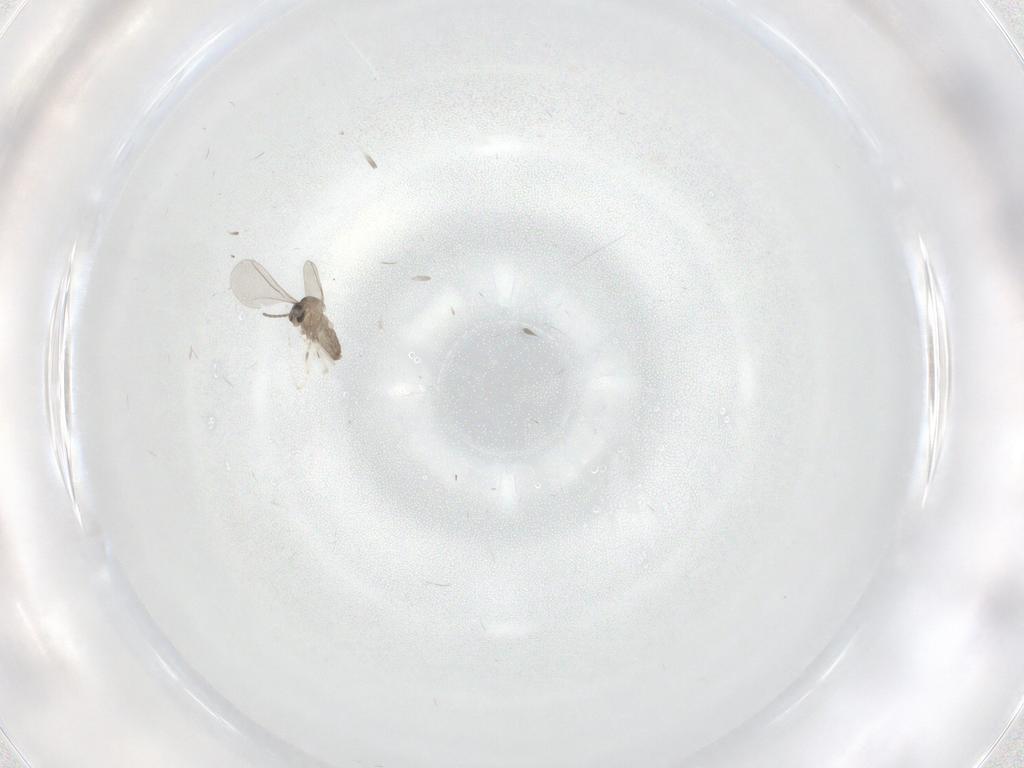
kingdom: Animalia
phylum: Arthropoda
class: Insecta
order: Diptera
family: Cecidomyiidae
